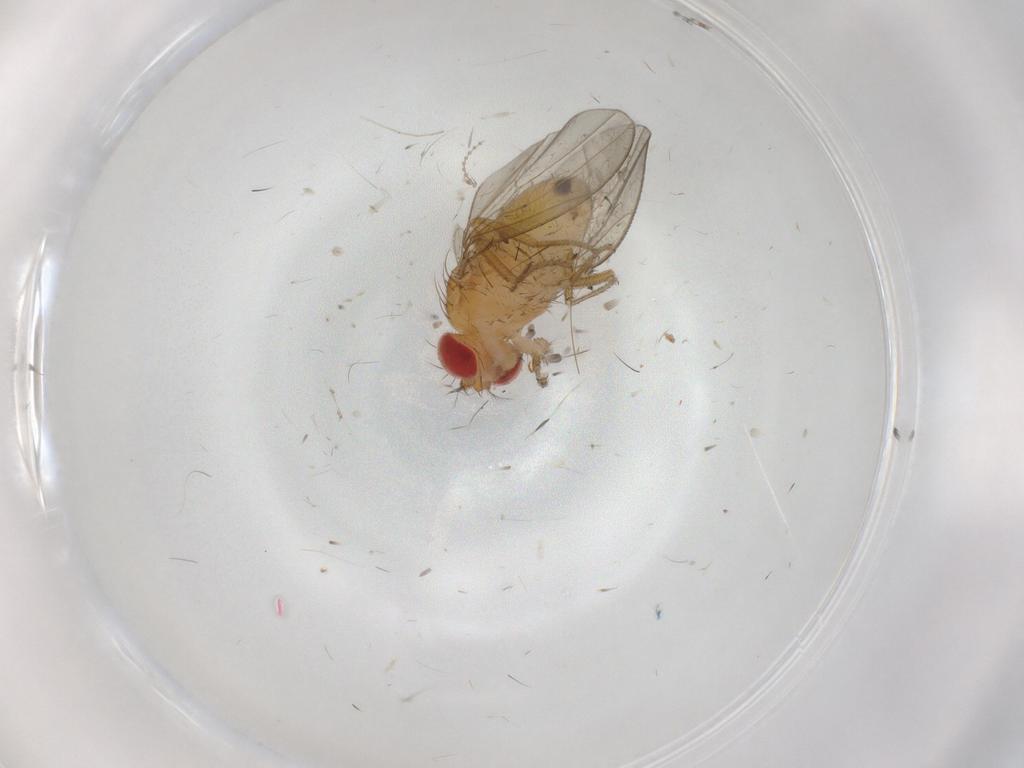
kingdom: Animalia
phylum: Arthropoda
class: Insecta
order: Diptera
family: Drosophilidae
